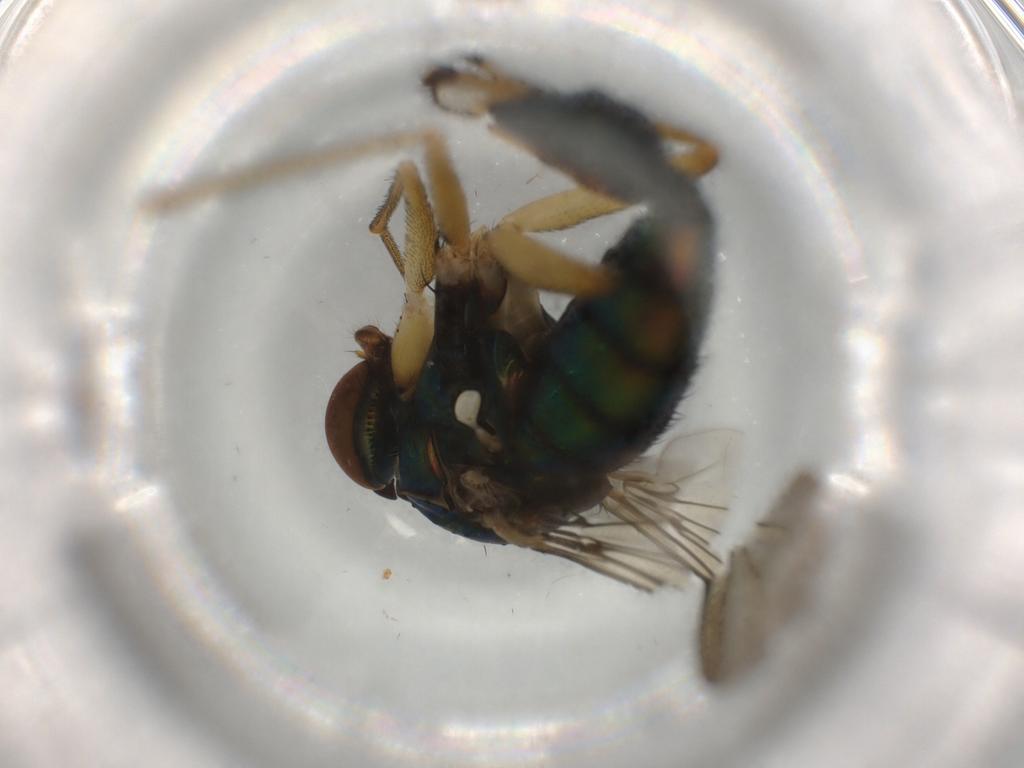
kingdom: Animalia
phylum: Arthropoda
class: Insecta
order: Diptera
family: Dolichopodidae
